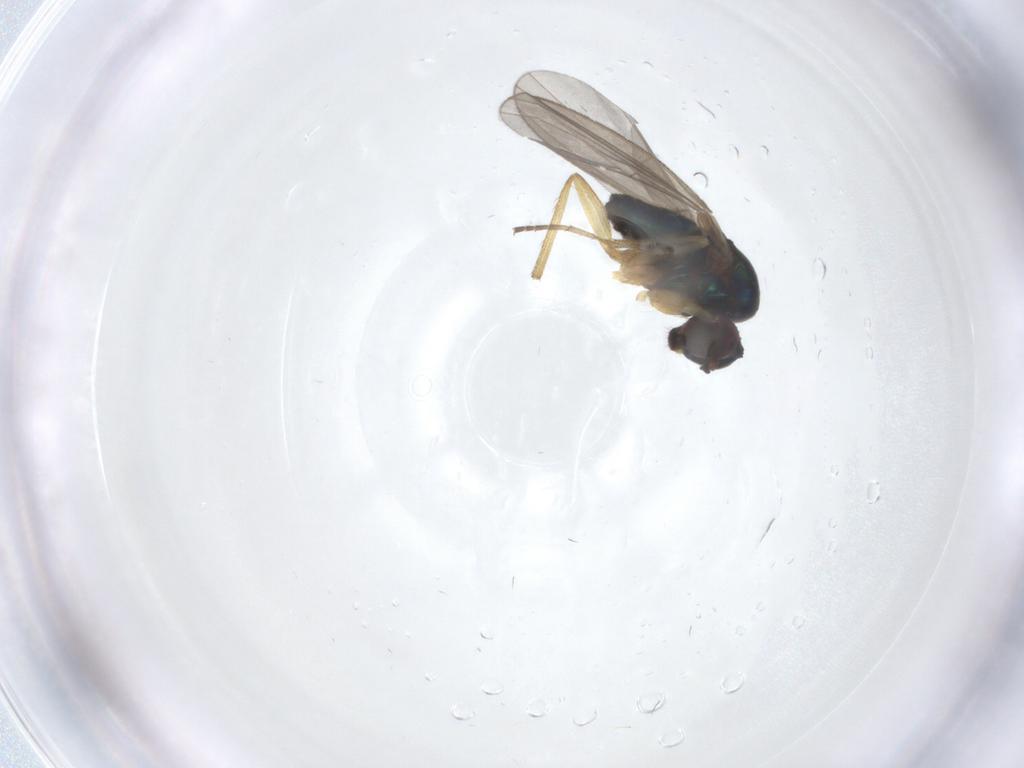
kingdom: Animalia
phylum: Arthropoda
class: Insecta
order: Diptera
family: Dolichopodidae
